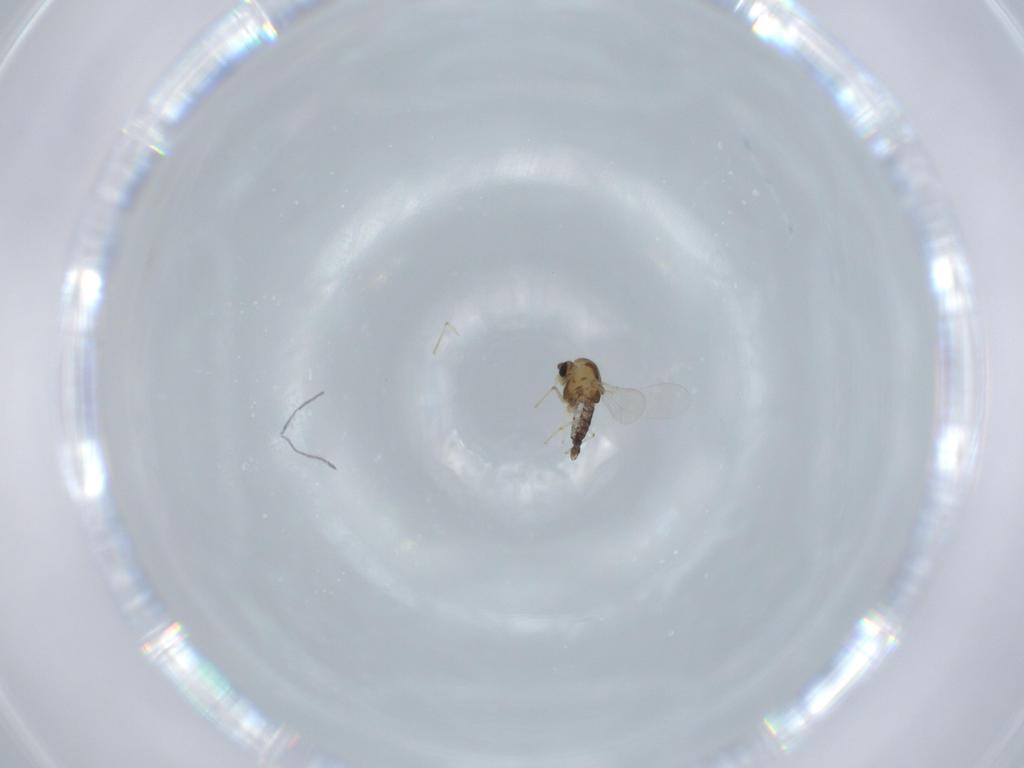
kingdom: Animalia
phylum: Arthropoda
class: Insecta
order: Diptera
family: Chironomidae
